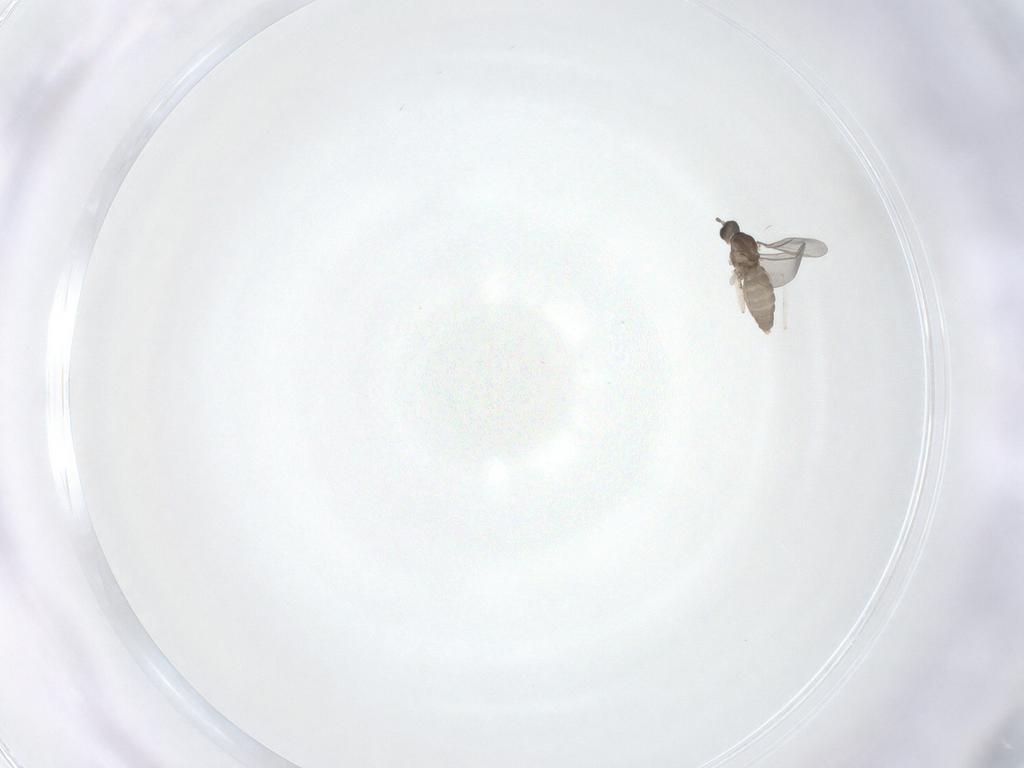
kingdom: Animalia
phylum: Arthropoda
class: Insecta
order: Diptera
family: Cecidomyiidae
